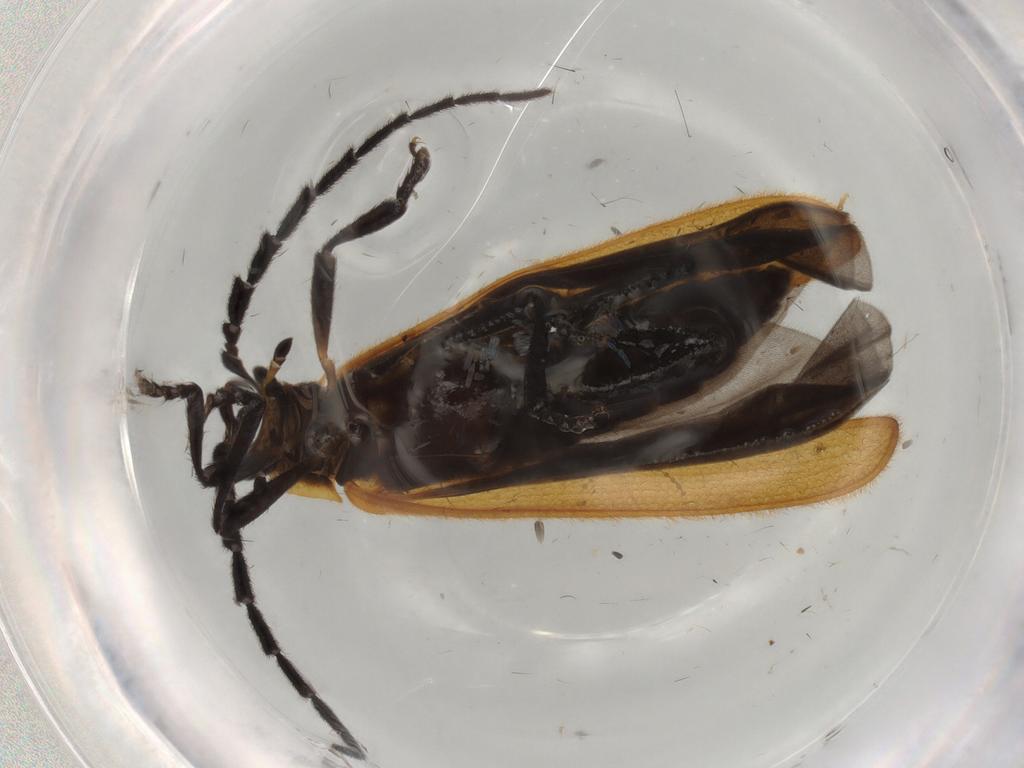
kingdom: Animalia
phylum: Arthropoda
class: Insecta
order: Coleoptera
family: Lycidae
